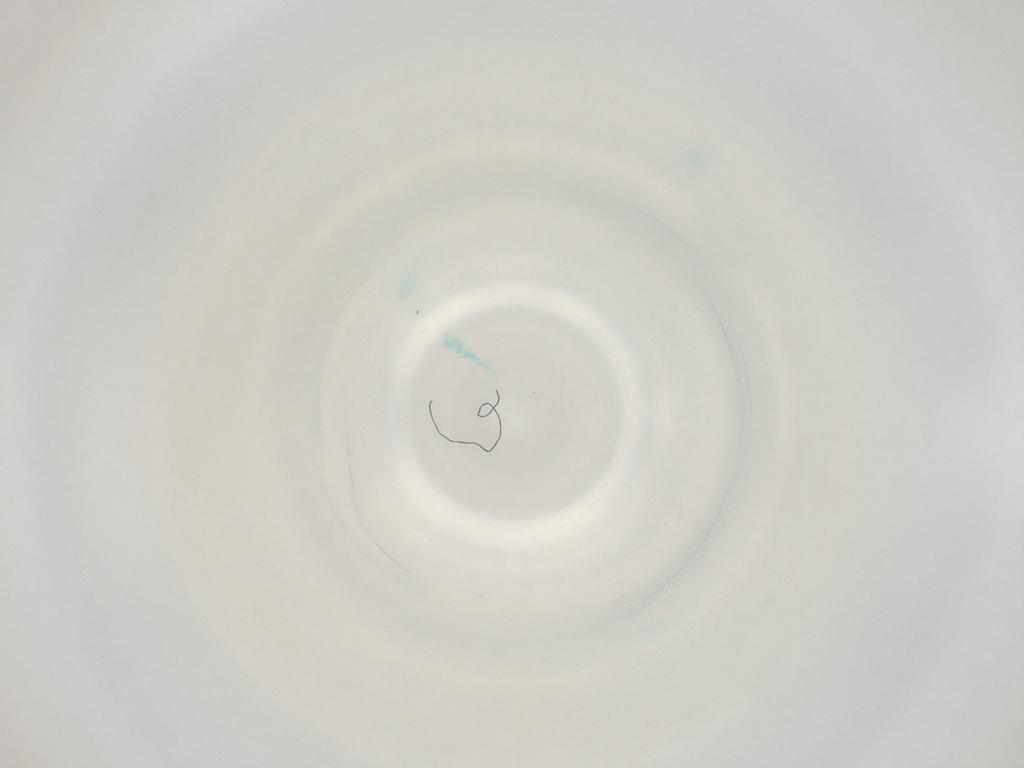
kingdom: Animalia
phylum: Arthropoda
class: Insecta
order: Diptera
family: Cecidomyiidae
